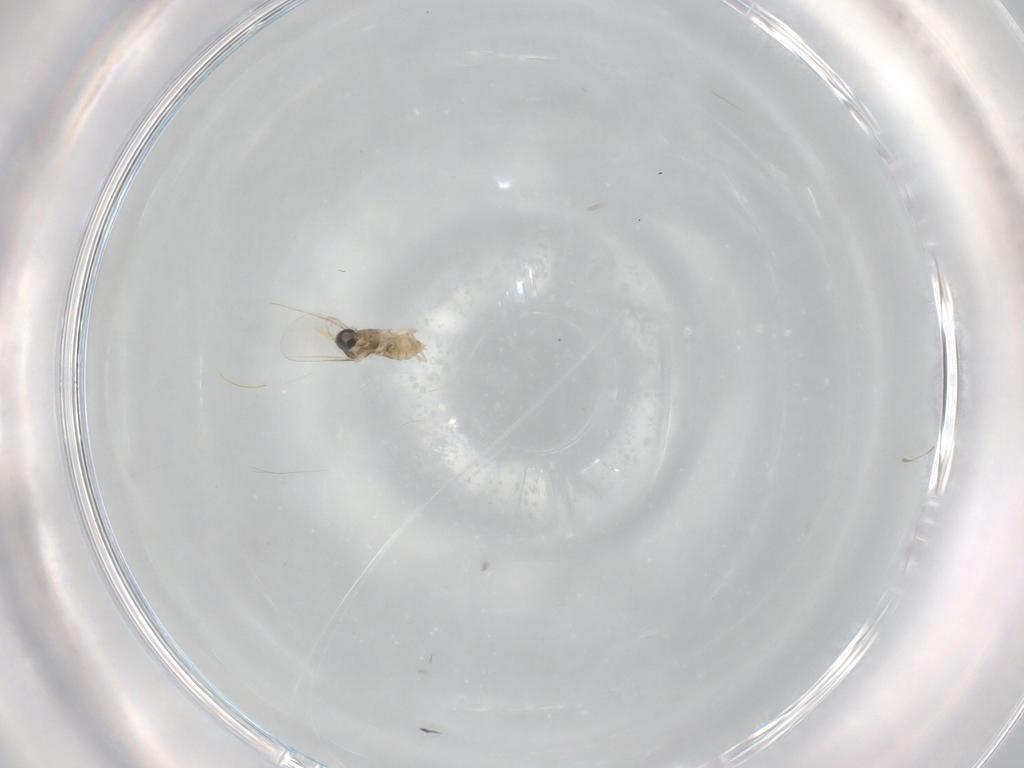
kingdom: Animalia
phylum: Arthropoda
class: Insecta
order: Diptera
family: Cecidomyiidae
